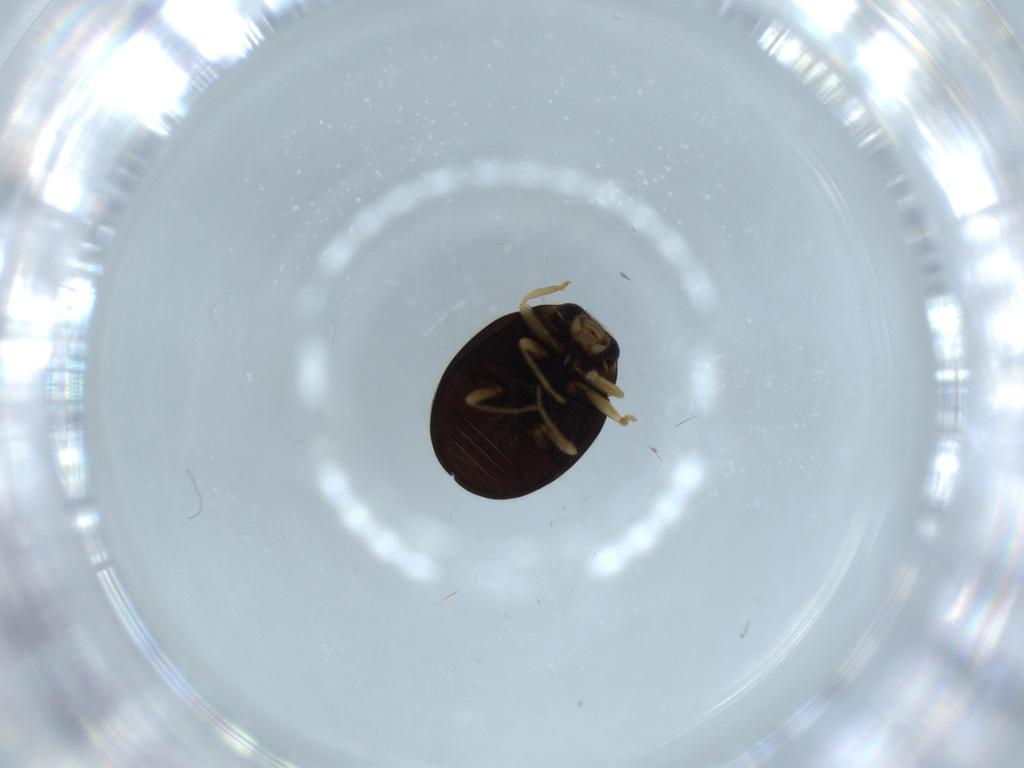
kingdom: Animalia
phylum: Arthropoda
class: Insecta
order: Coleoptera
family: Coccinellidae
